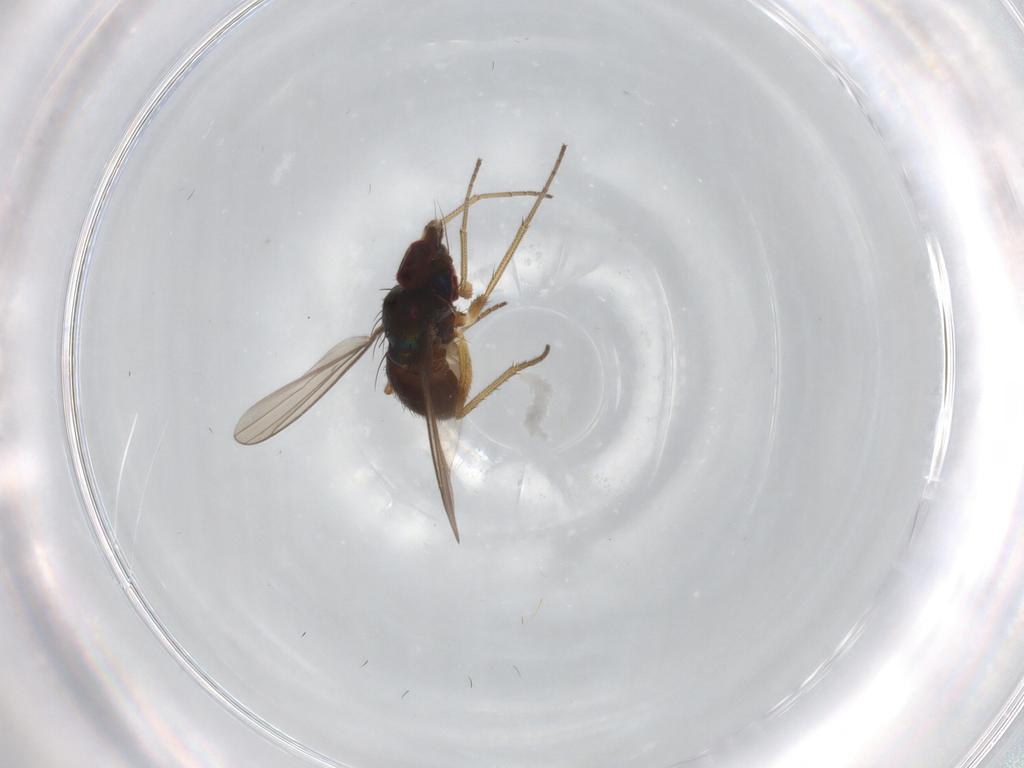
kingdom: Animalia
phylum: Arthropoda
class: Insecta
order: Diptera
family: Dolichopodidae
